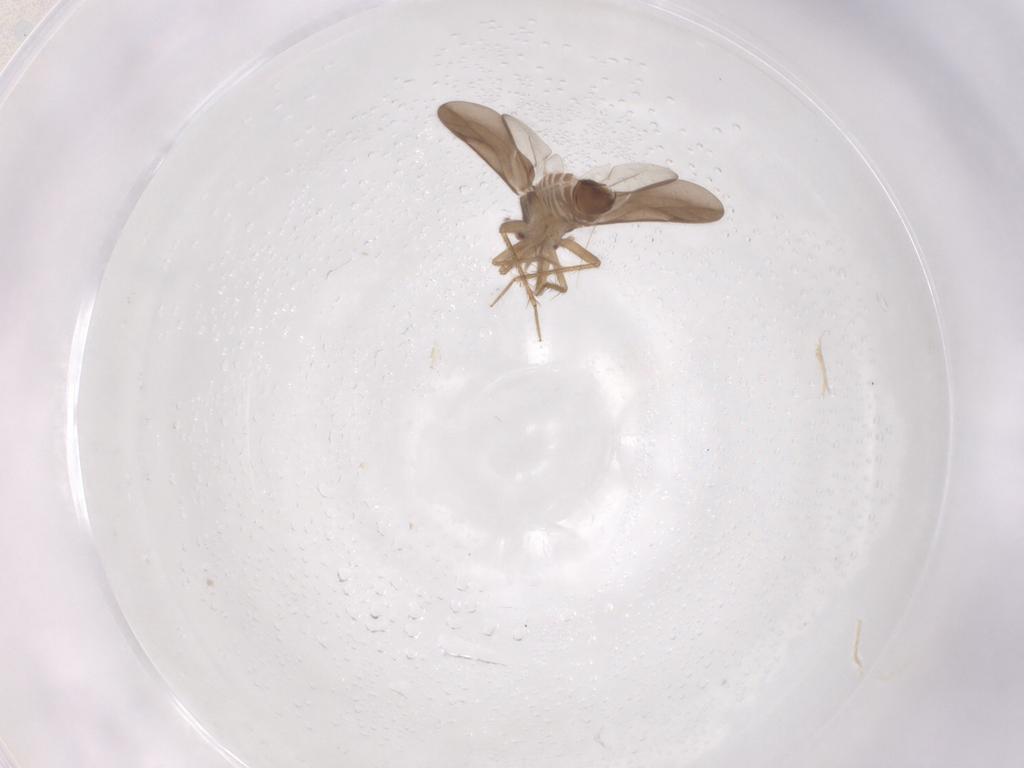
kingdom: Animalia
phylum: Arthropoda
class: Insecta
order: Hemiptera
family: Ceratocombidae
